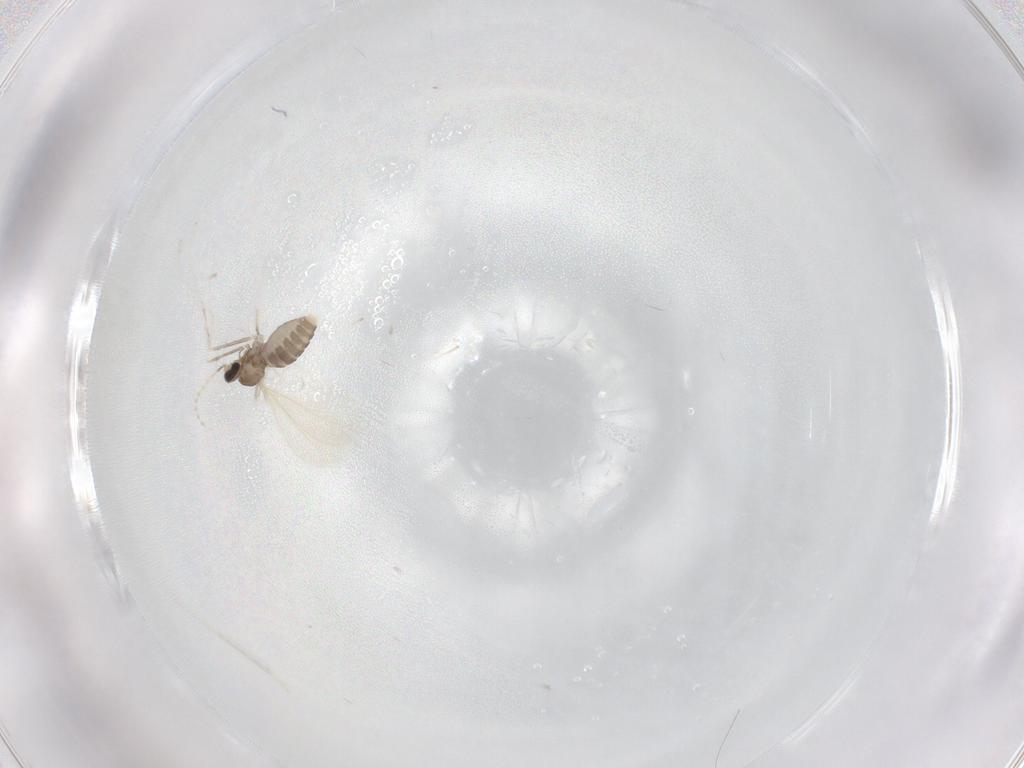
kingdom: Animalia
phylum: Arthropoda
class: Insecta
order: Diptera
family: Cecidomyiidae
